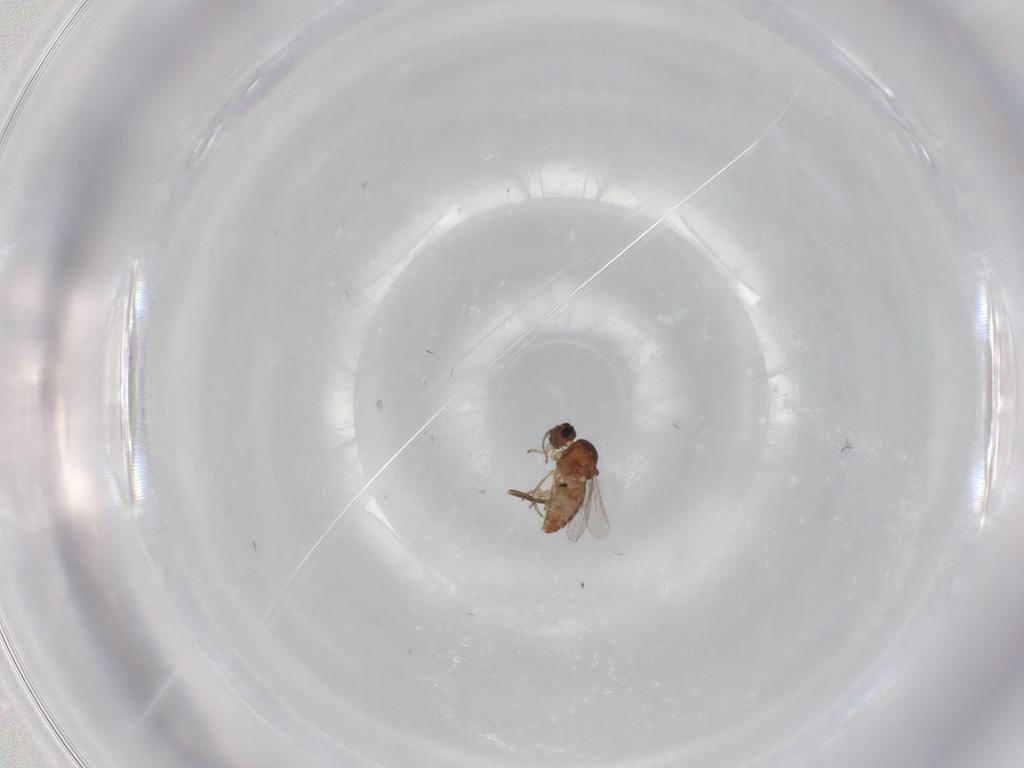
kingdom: Animalia
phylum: Arthropoda
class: Insecta
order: Diptera
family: Ceratopogonidae
